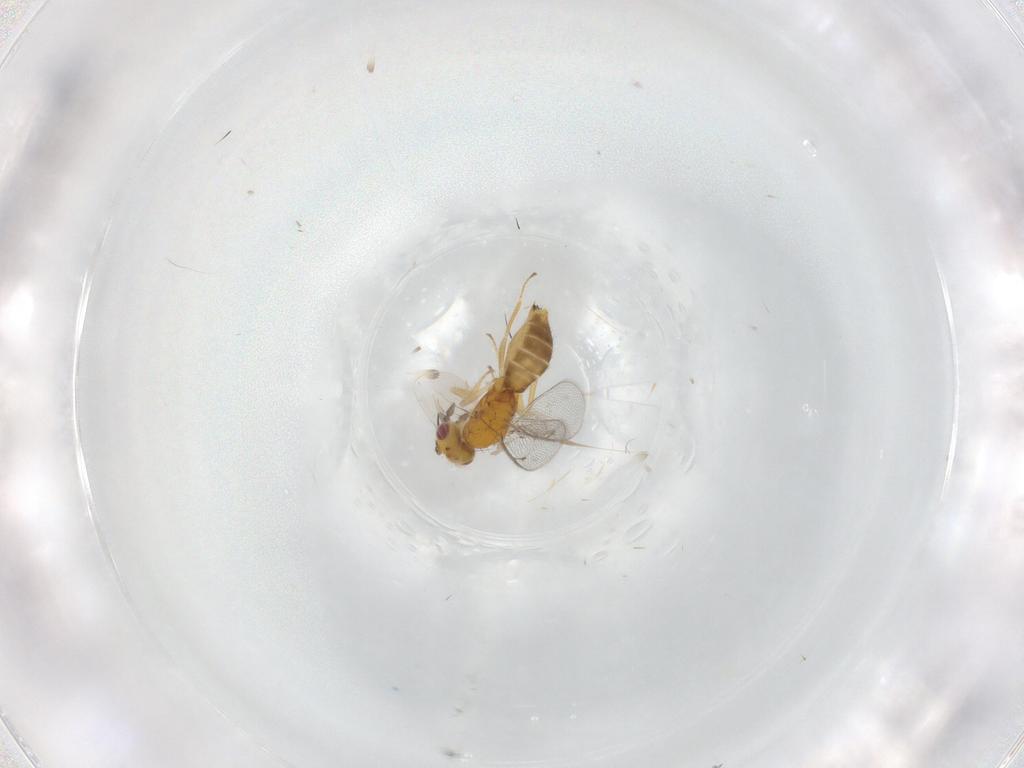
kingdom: Animalia
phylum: Arthropoda
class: Insecta
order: Hymenoptera
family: Eulophidae
